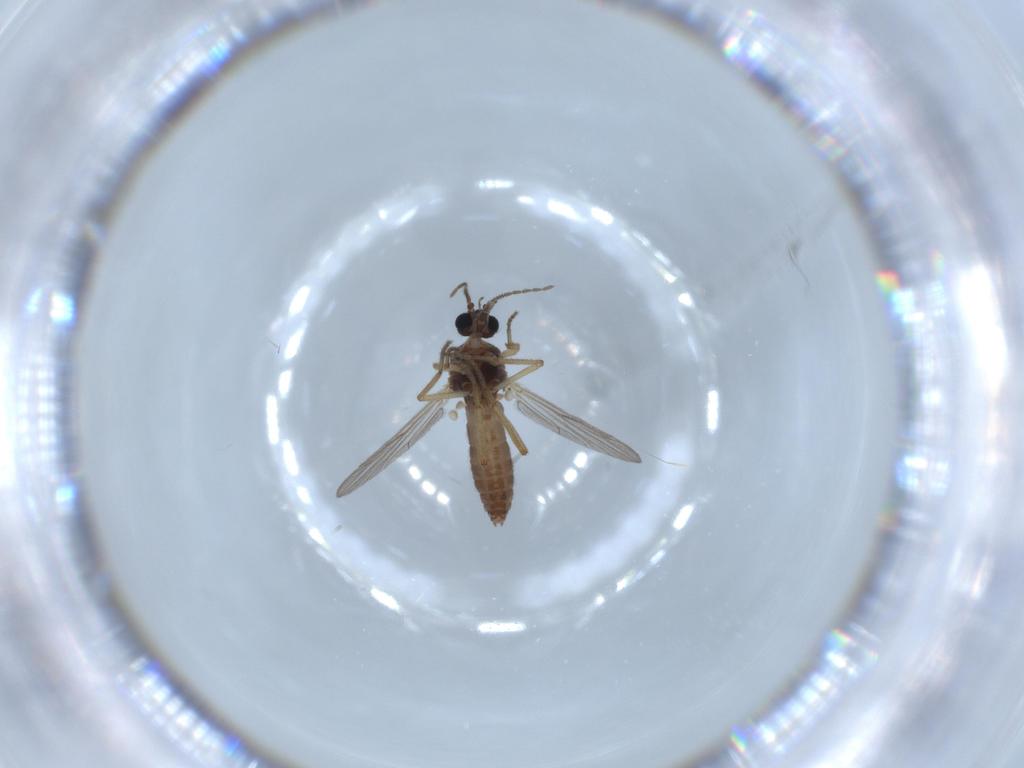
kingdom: Animalia
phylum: Arthropoda
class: Insecta
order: Diptera
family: Ceratopogonidae
